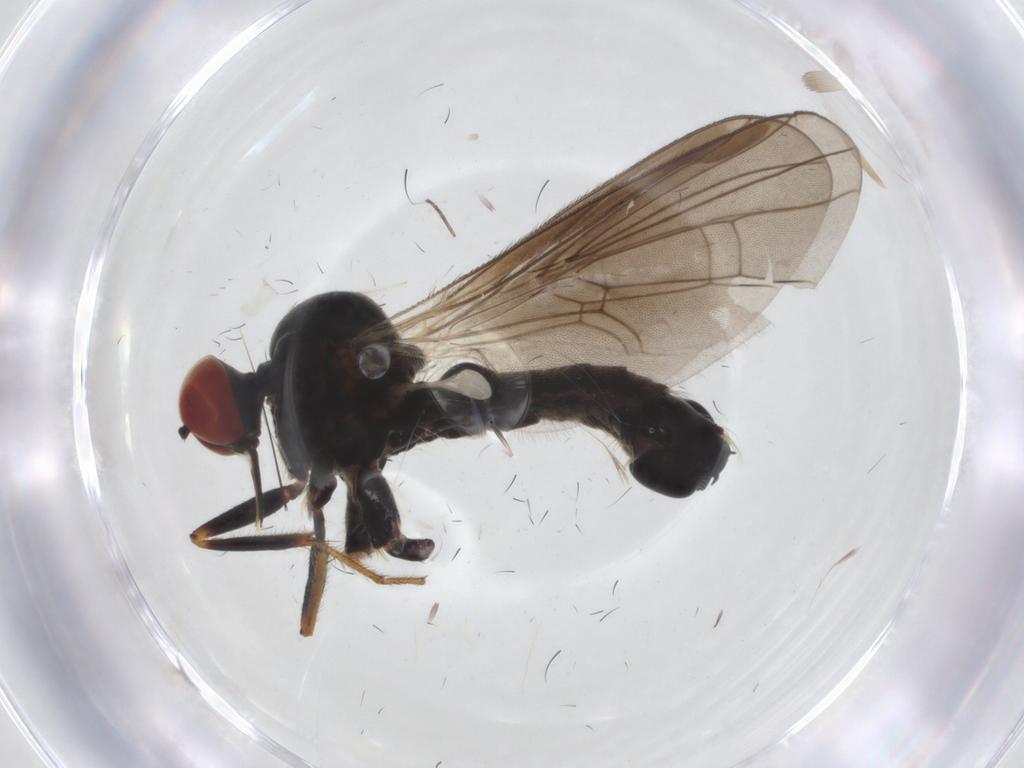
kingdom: Animalia
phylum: Arthropoda
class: Insecta
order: Diptera
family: Hybotidae
